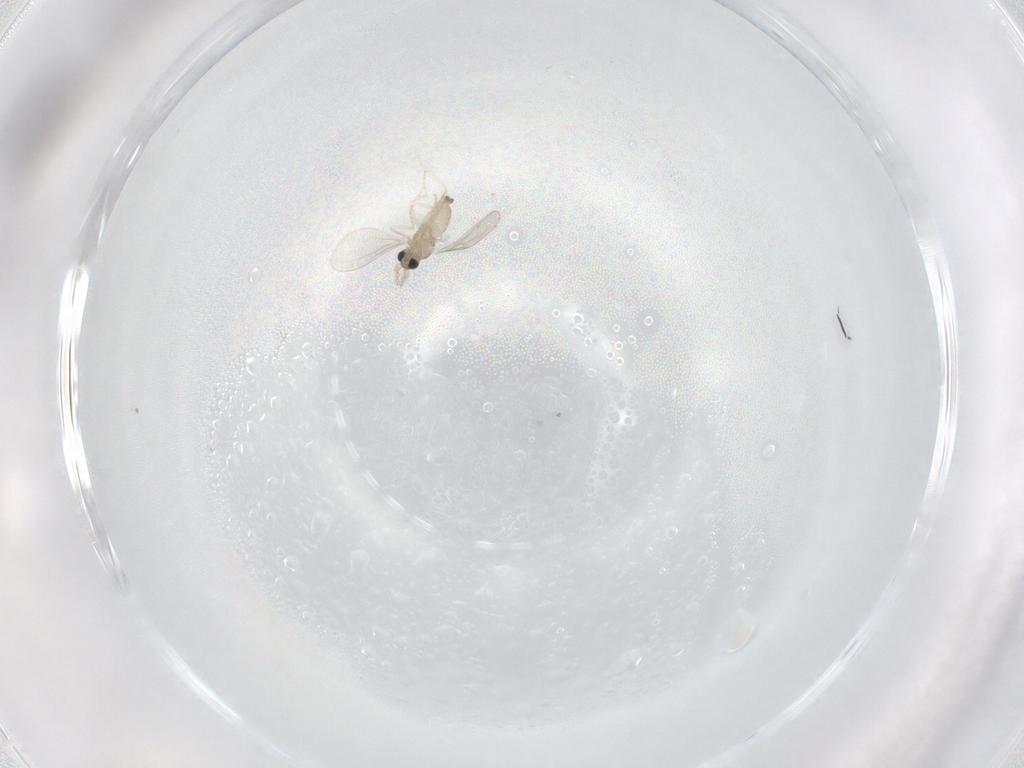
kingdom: Animalia
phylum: Arthropoda
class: Insecta
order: Diptera
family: Cecidomyiidae
